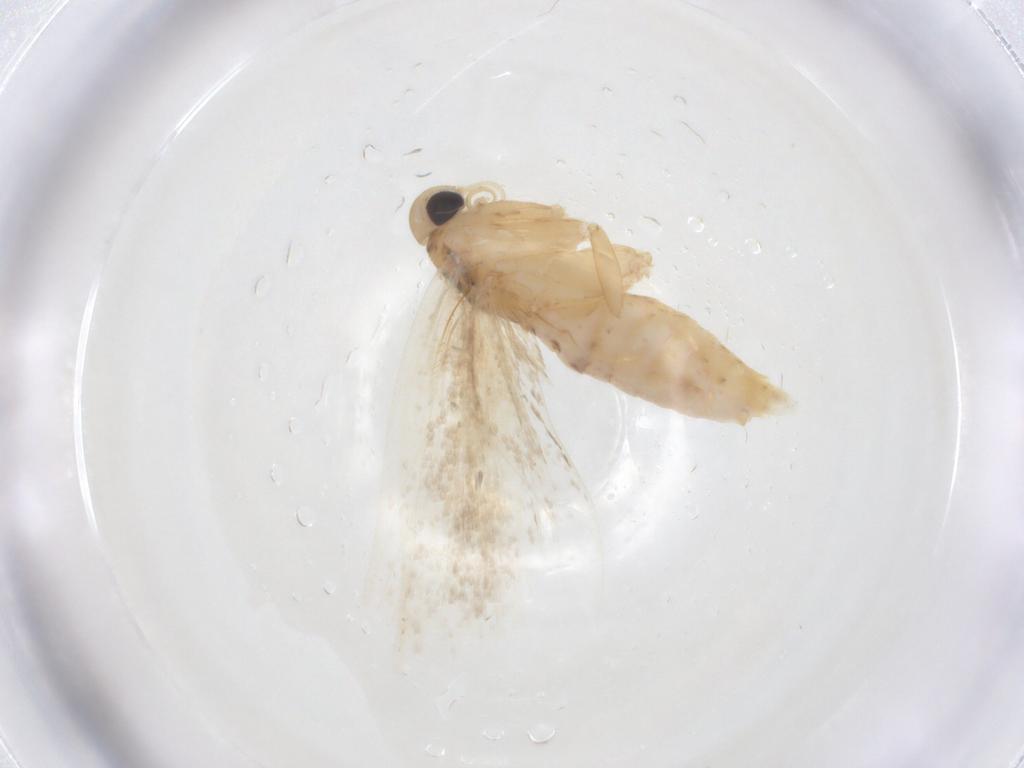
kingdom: Animalia
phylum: Arthropoda
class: Insecta
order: Lepidoptera
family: Gelechiidae
